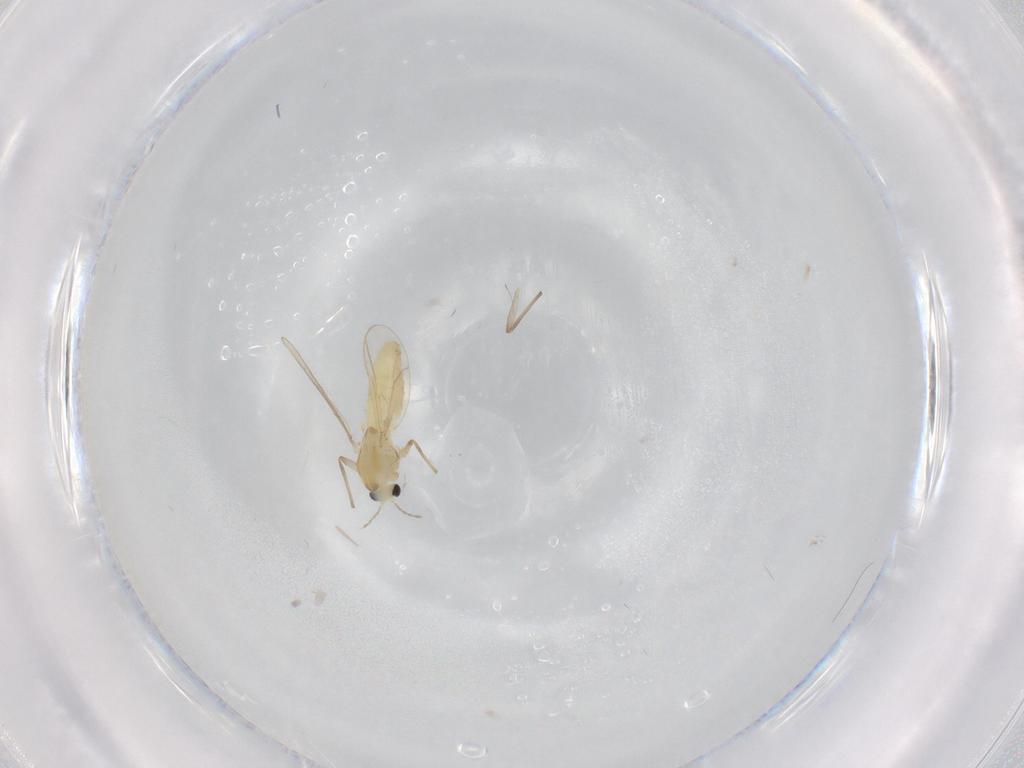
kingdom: Animalia
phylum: Arthropoda
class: Insecta
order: Diptera
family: Chironomidae
